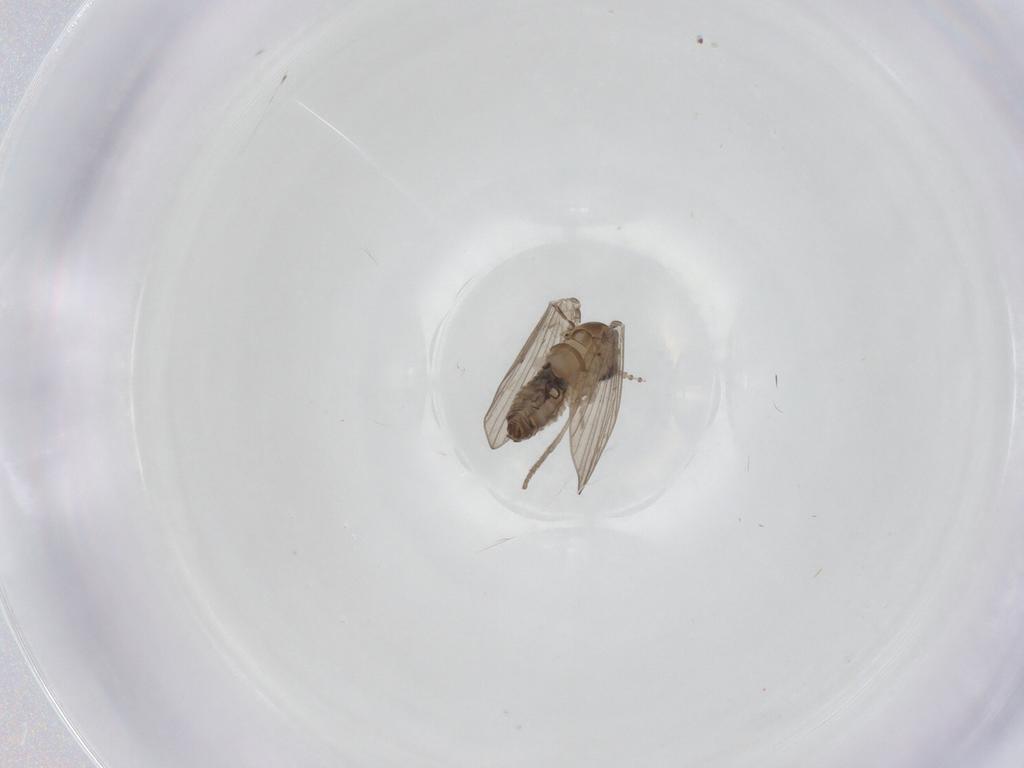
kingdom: Animalia
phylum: Arthropoda
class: Insecta
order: Diptera
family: Psychodidae
